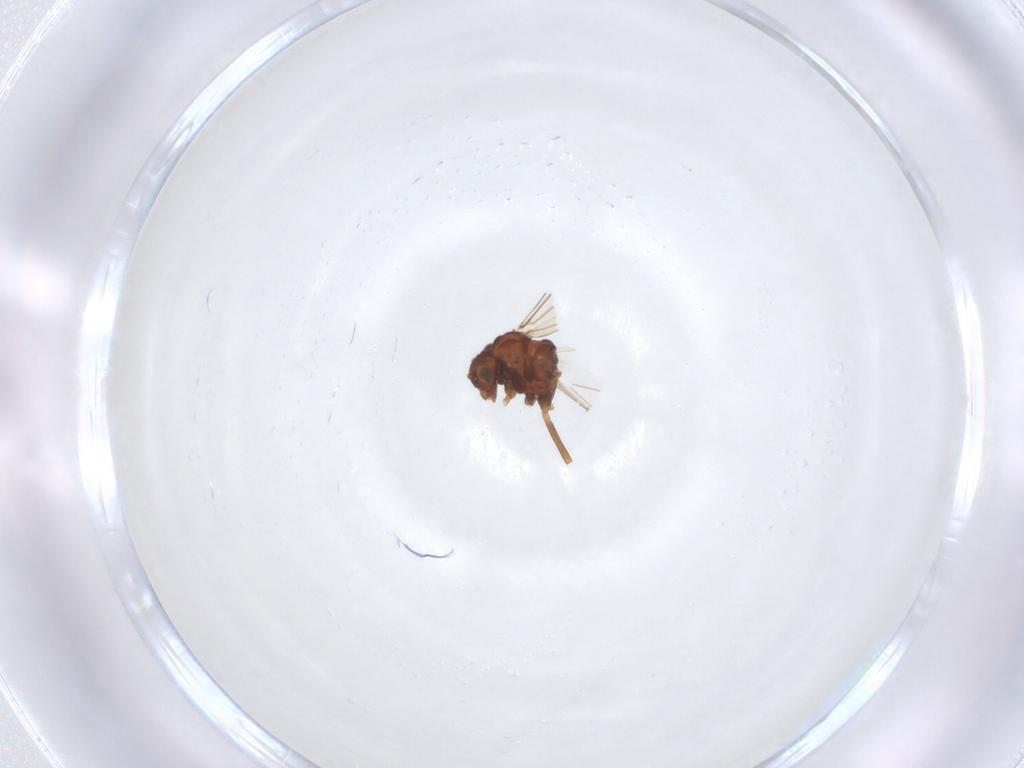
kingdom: Animalia
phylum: Arthropoda
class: Insecta
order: Psocodea
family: Lachesillidae
